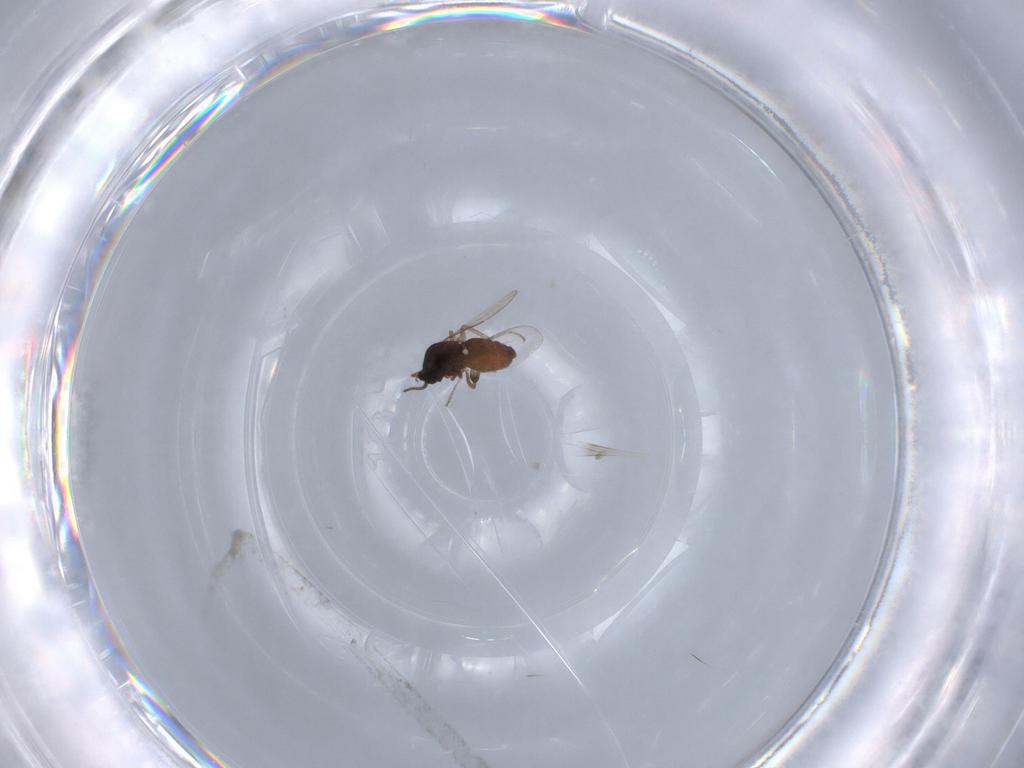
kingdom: Animalia
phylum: Arthropoda
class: Insecta
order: Diptera
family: Ceratopogonidae
